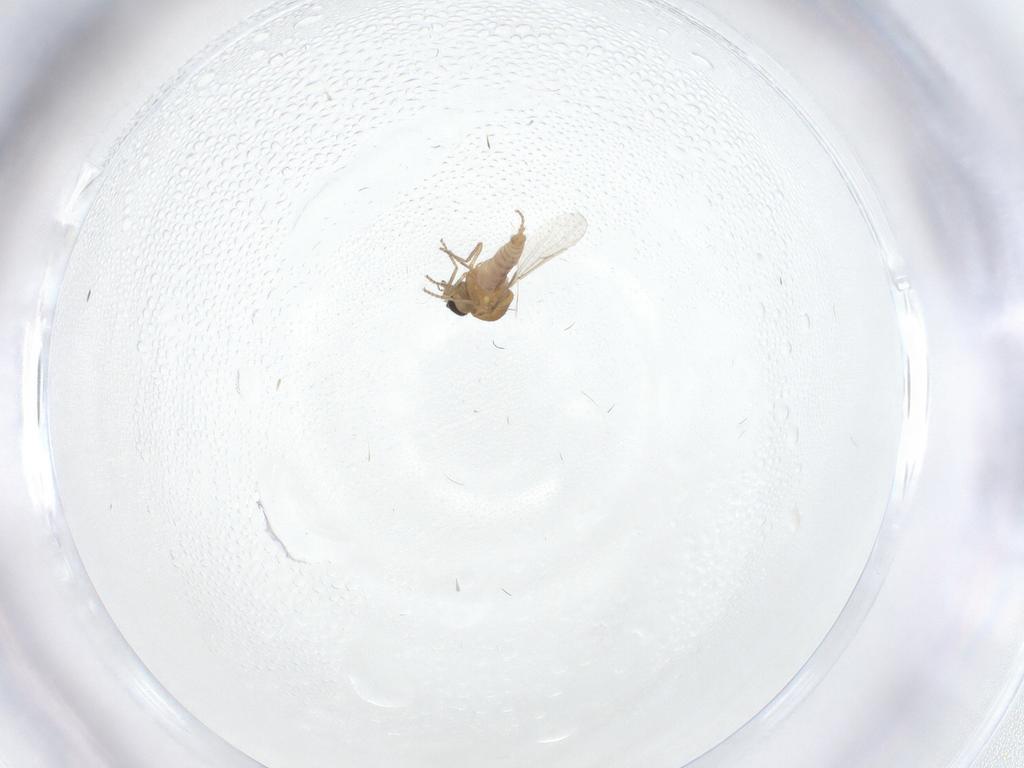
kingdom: Animalia
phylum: Arthropoda
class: Insecta
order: Diptera
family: Ceratopogonidae
